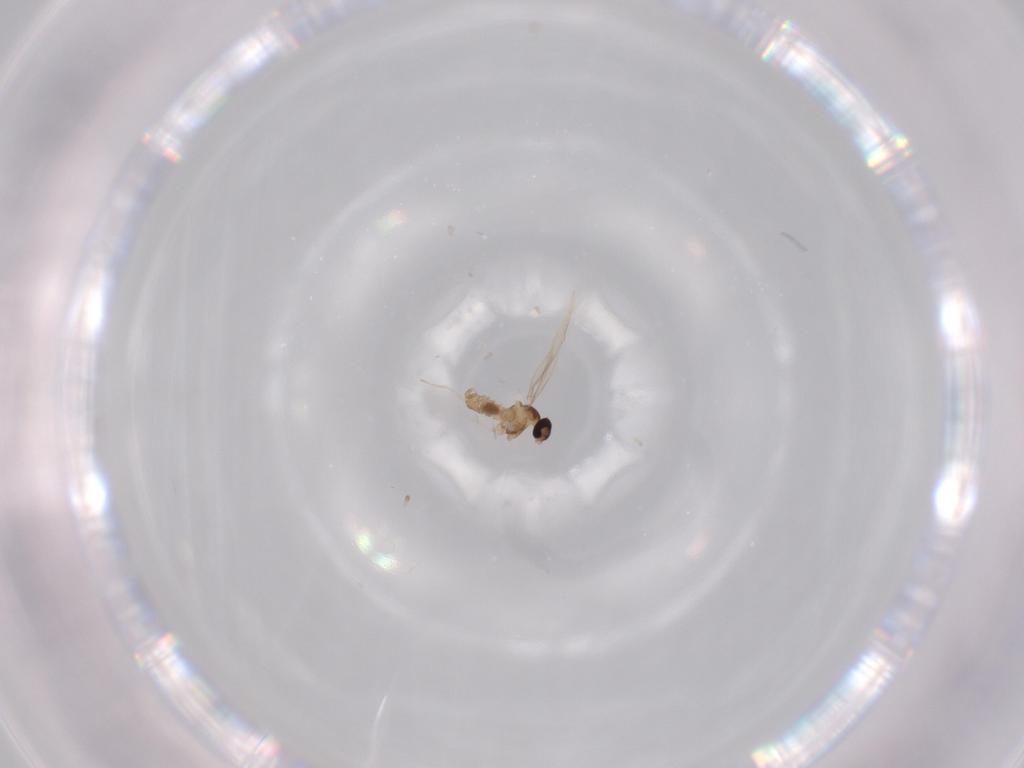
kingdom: Animalia
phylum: Arthropoda
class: Insecta
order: Diptera
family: Cecidomyiidae
